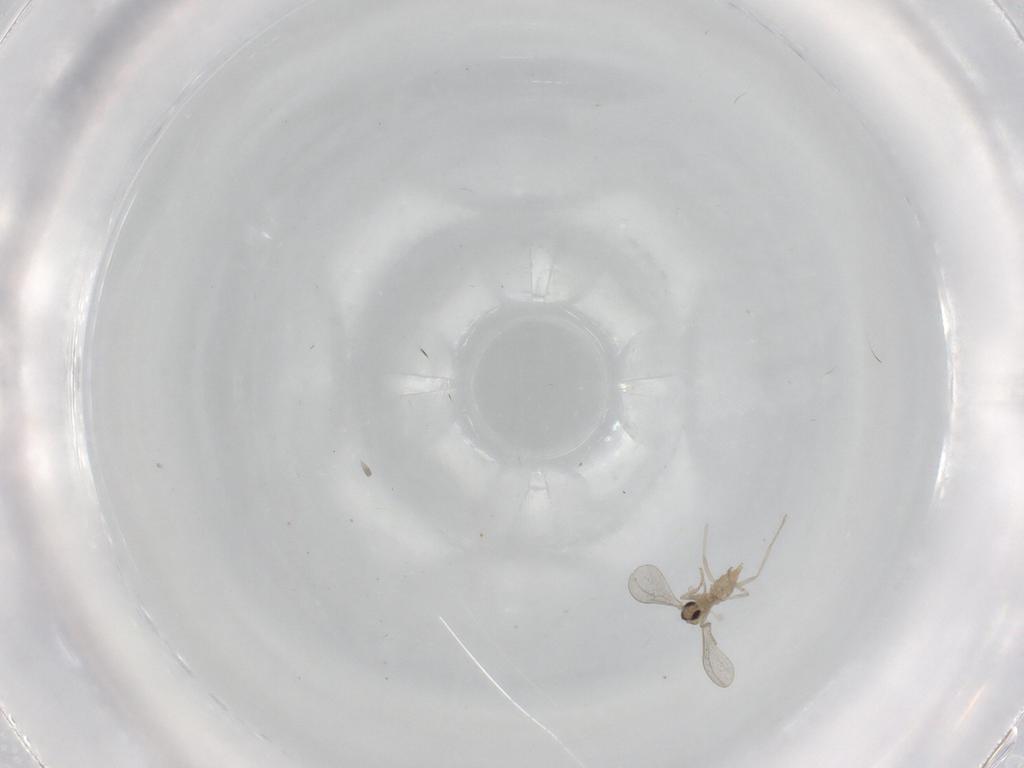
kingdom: Animalia
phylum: Arthropoda
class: Insecta
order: Diptera
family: Cecidomyiidae
